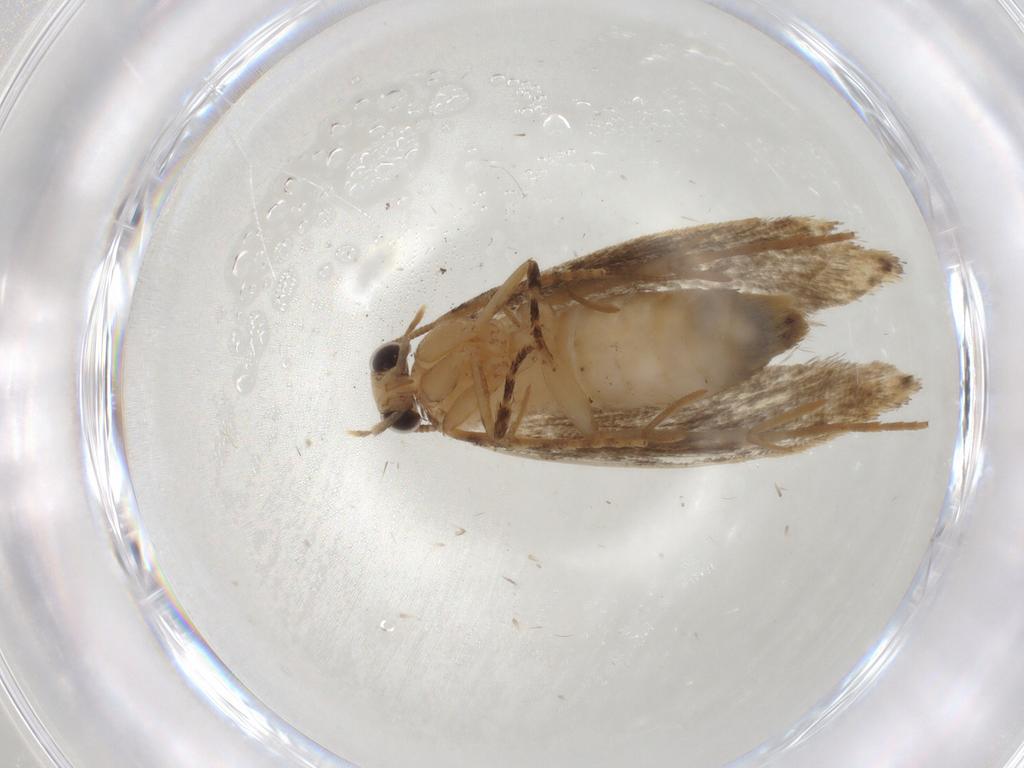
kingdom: Animalia
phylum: Arthropoda
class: Insecta
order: Lepidoptera
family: Tineidae
